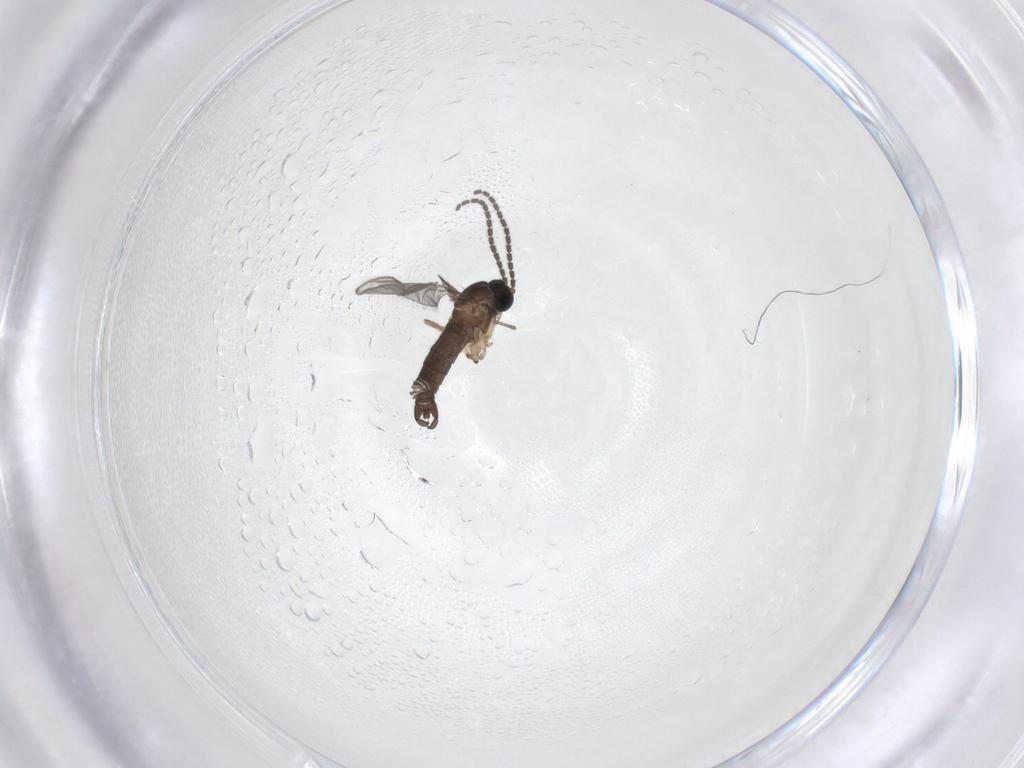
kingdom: Animalia
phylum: Arthropoda
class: Insecta
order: Diptera
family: Sciaridae
